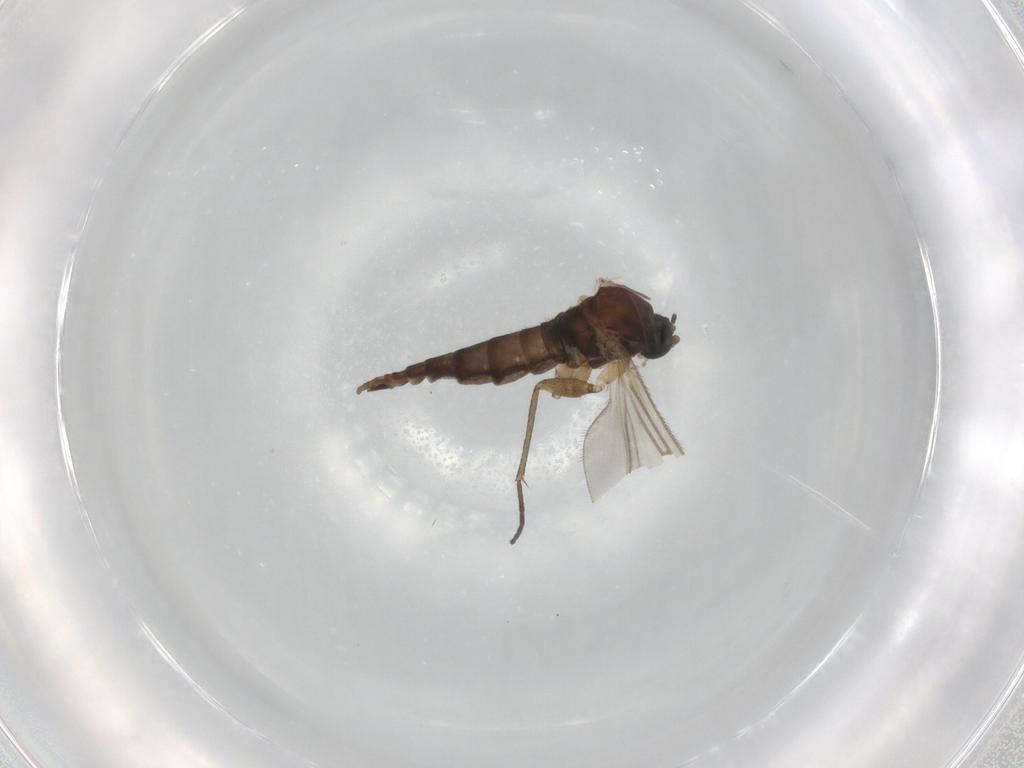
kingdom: Animalia
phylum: Arthropoda
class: Insecta
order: Diptera
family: Sciaridae
